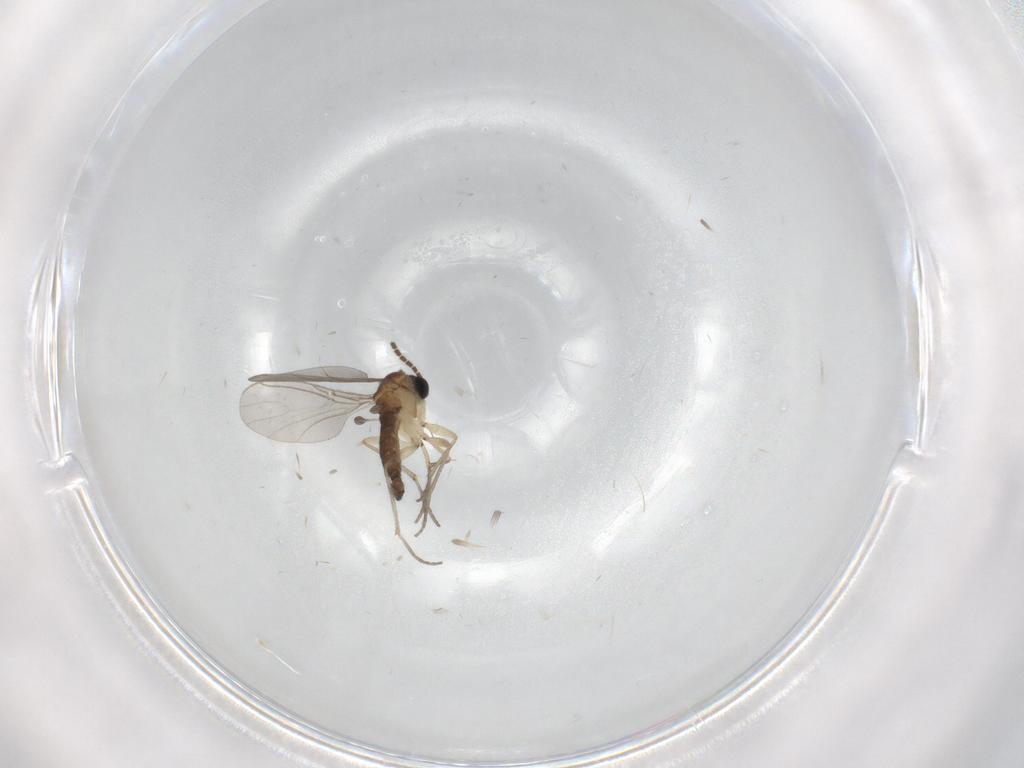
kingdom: Animalia
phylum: Arthropoda
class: Insecta
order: Diptera
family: Sciaridae
